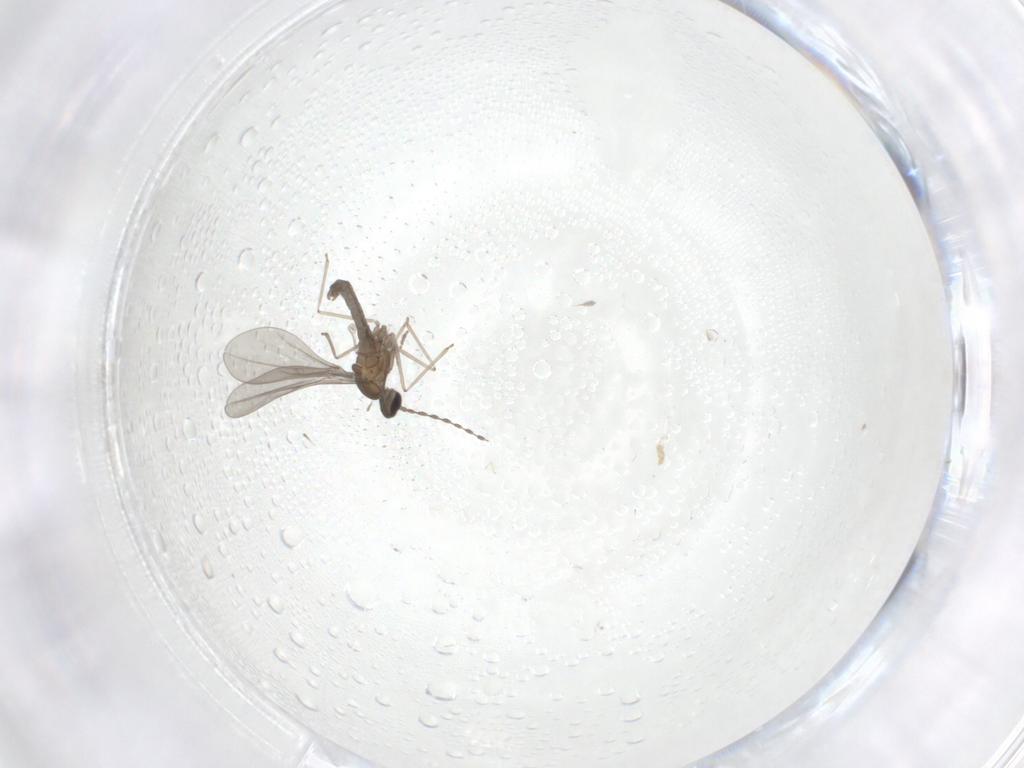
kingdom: Animalia
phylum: Arthropoda
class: Insecta
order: Diptera
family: Cecidomyiidae
